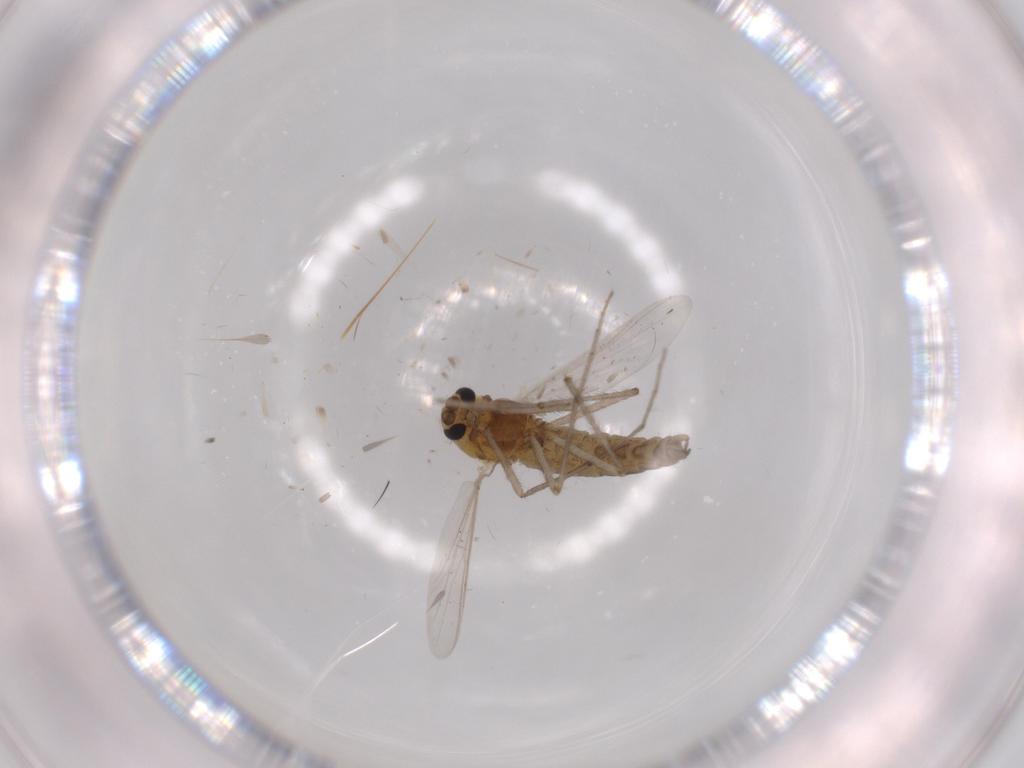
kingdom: Animalia
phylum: Arthropoda
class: Insecta
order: Diptera
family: Chironomidae
